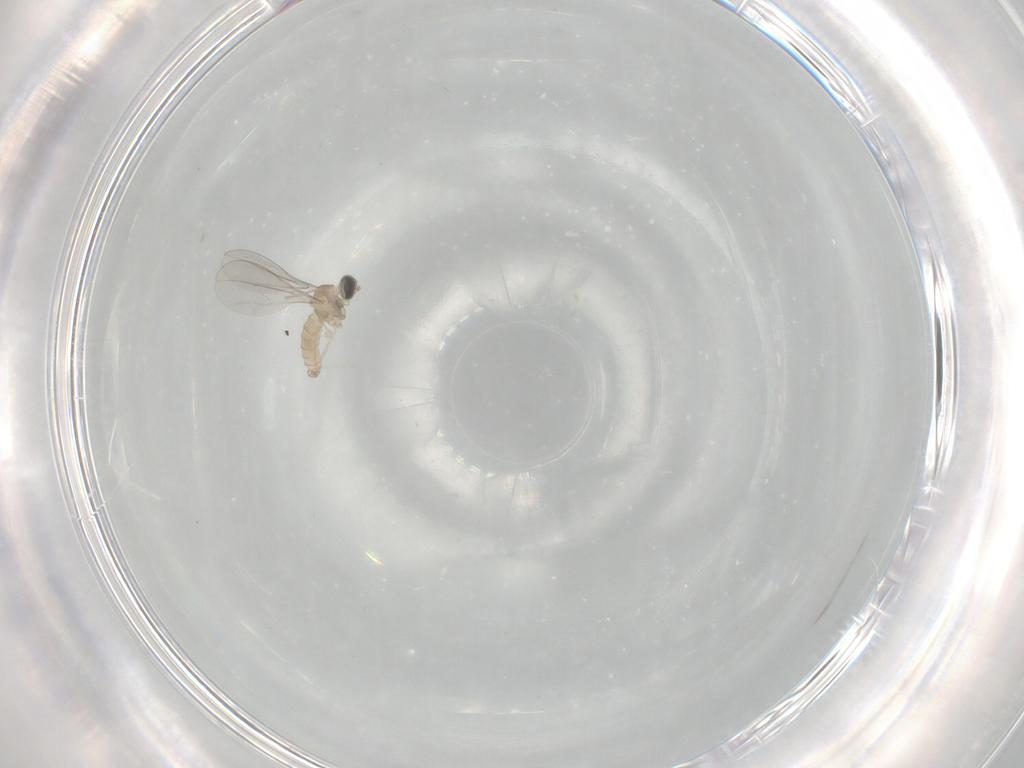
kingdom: Animalia
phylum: Arthropoda
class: Insecta
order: Diptera
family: Cecidomyiidae
